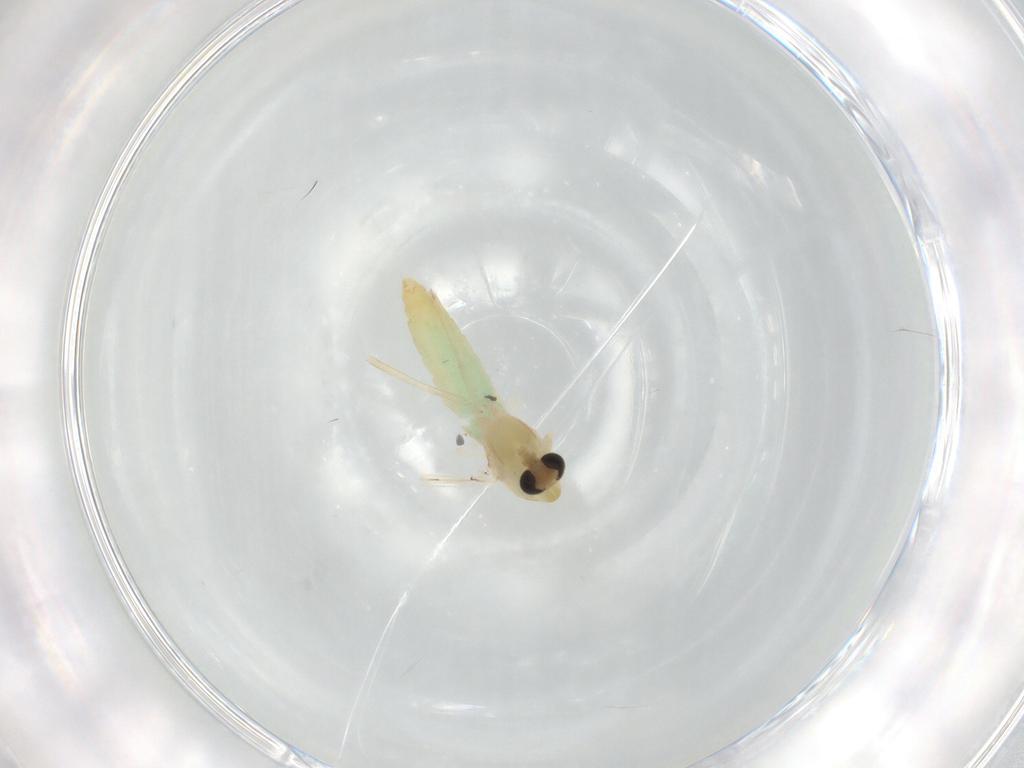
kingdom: Animalia
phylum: Arthropoda
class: Insecta
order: Diptera
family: Chironomidae
